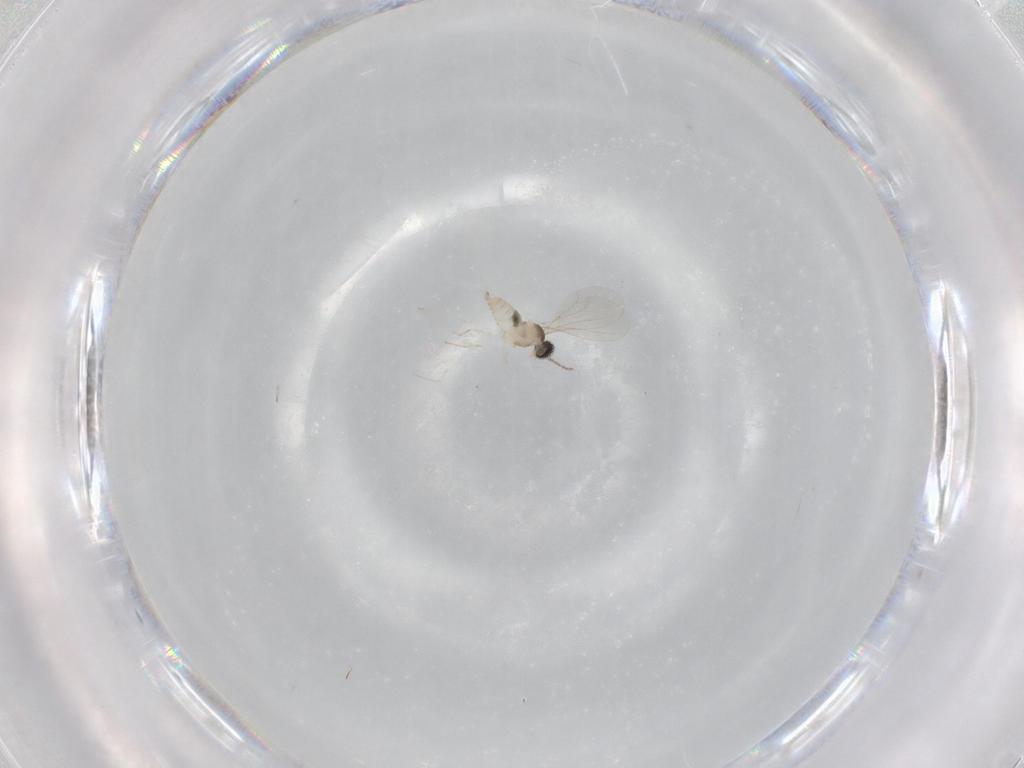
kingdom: Animalia
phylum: Arthropoda
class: Insecta
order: Diptera
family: Cecidomyiidae
